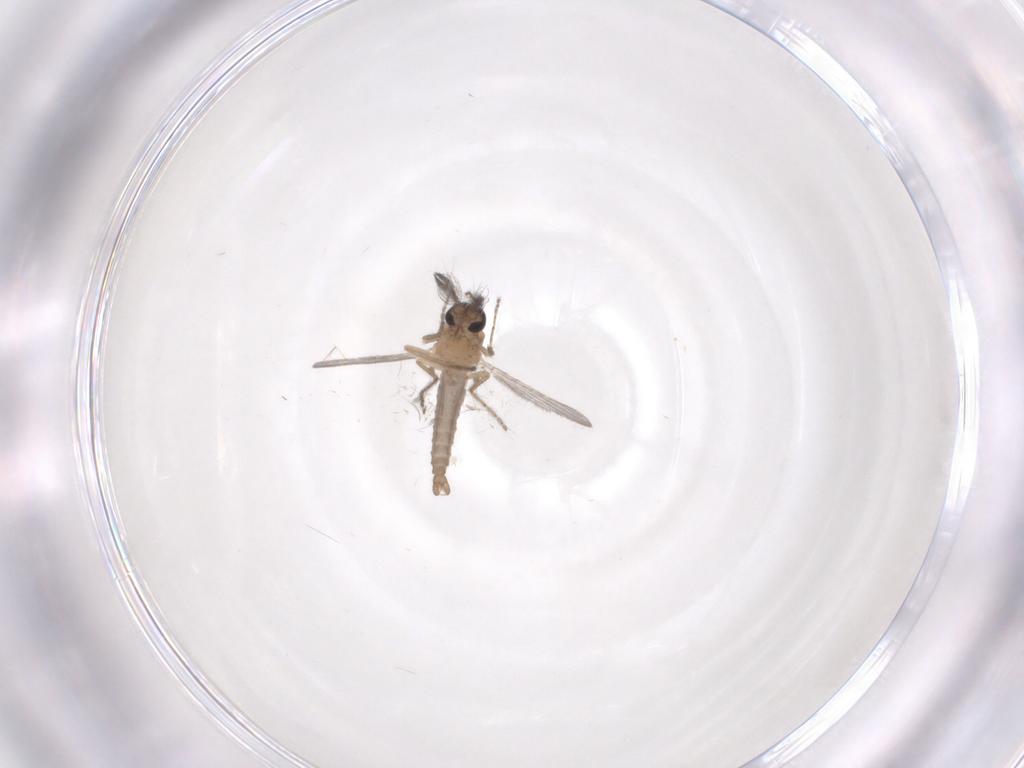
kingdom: Animalia
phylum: Arthropoda
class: Insecta
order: Diptera
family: Ceratopogonidae
